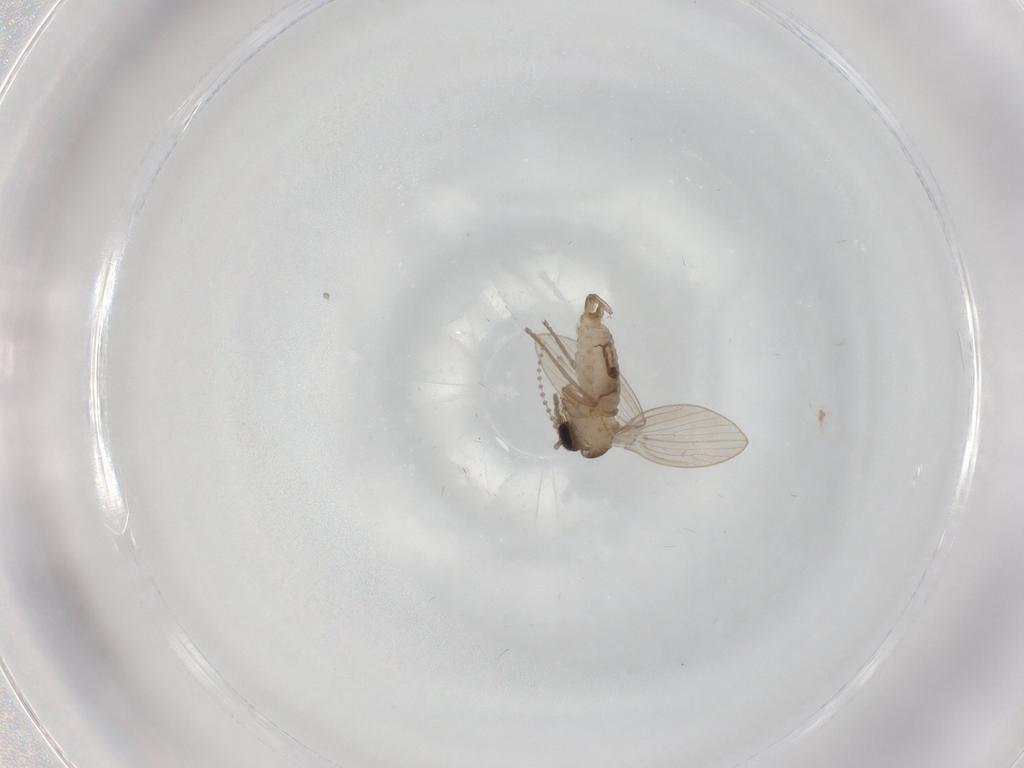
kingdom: Animalia
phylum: Arthropoda
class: Insecta
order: Diptera
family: Psychodidae
